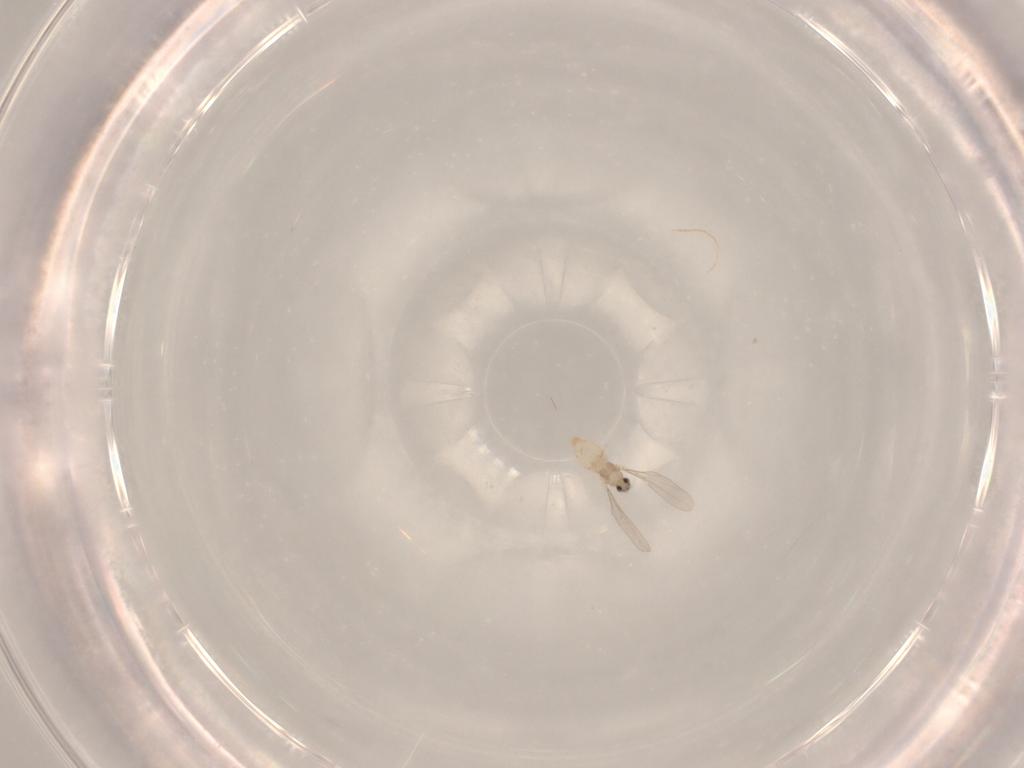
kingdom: Animalia
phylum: Arthropoda
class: Insecta
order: Diptera
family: Cecidomyiidae
